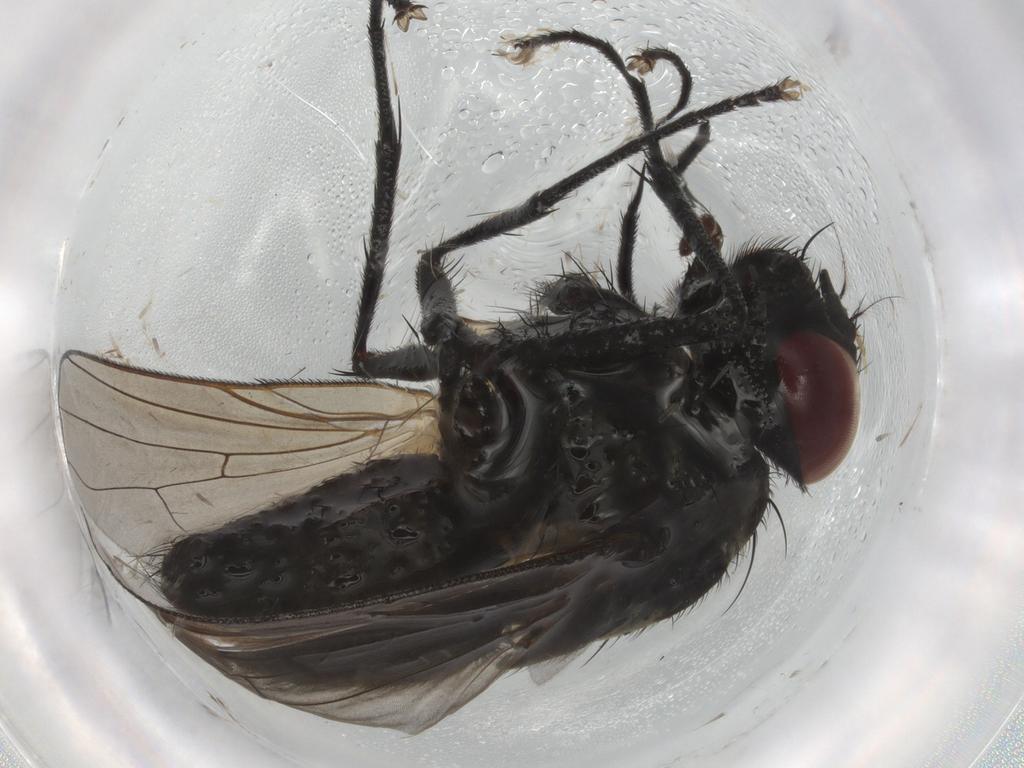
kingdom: Animalia
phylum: Arthropoda
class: Insecta
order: Diptera
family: Muscidae
